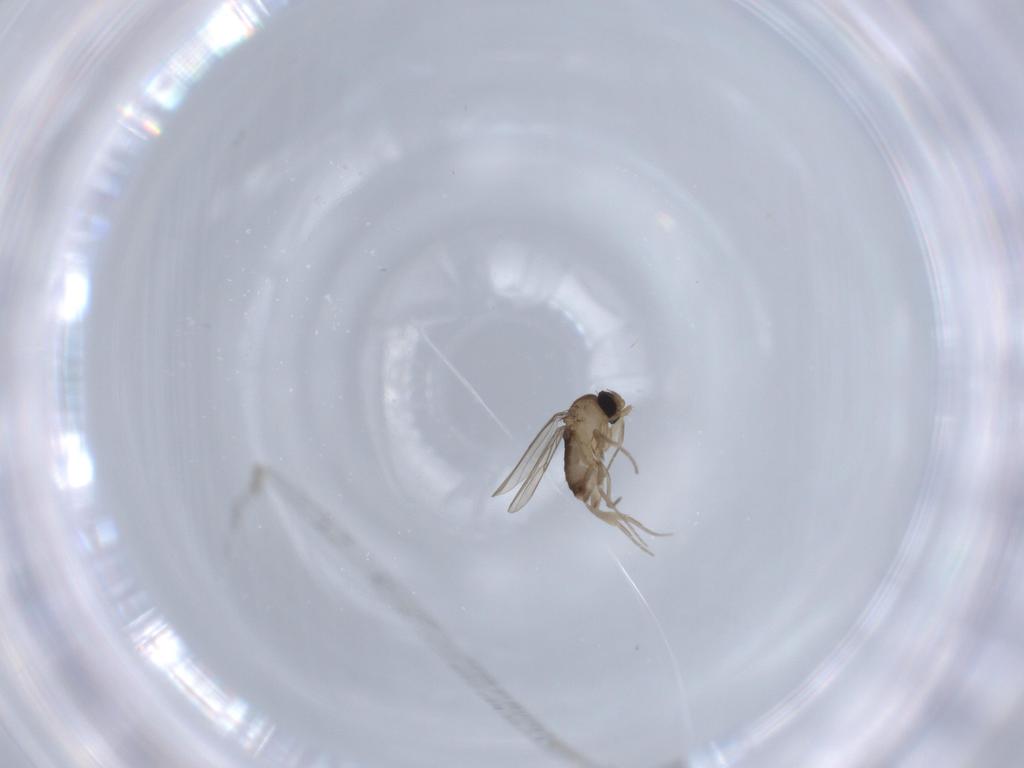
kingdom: Animalia
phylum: Arthropoda
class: Insecta
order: Diptera
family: Phoridae
